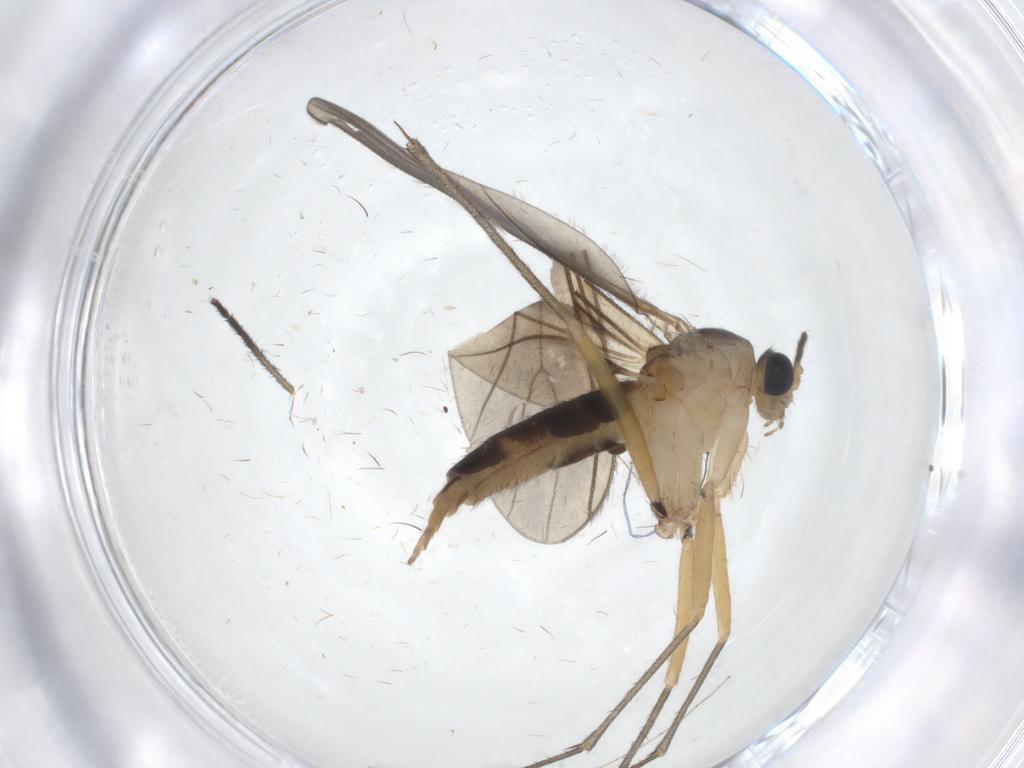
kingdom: Animalia
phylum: Arthropoda
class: Insecta
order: Diptera
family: Sciaridae
